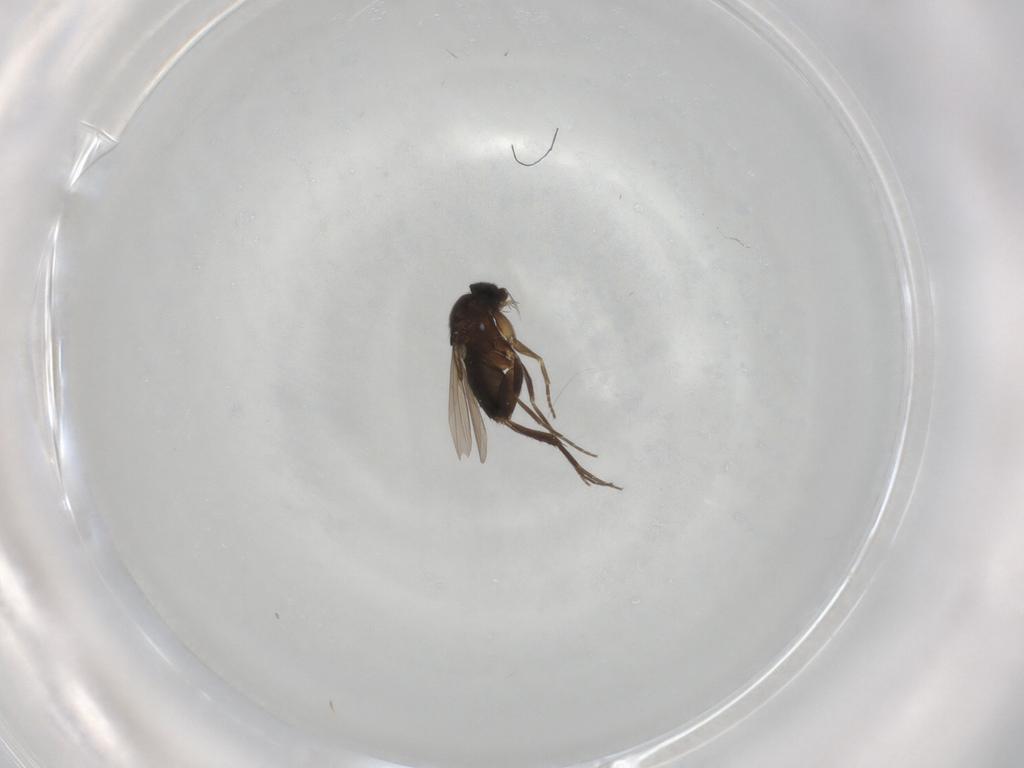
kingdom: Animalia
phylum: Arthropoda
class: Insecta
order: Diptera
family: Phoridae
